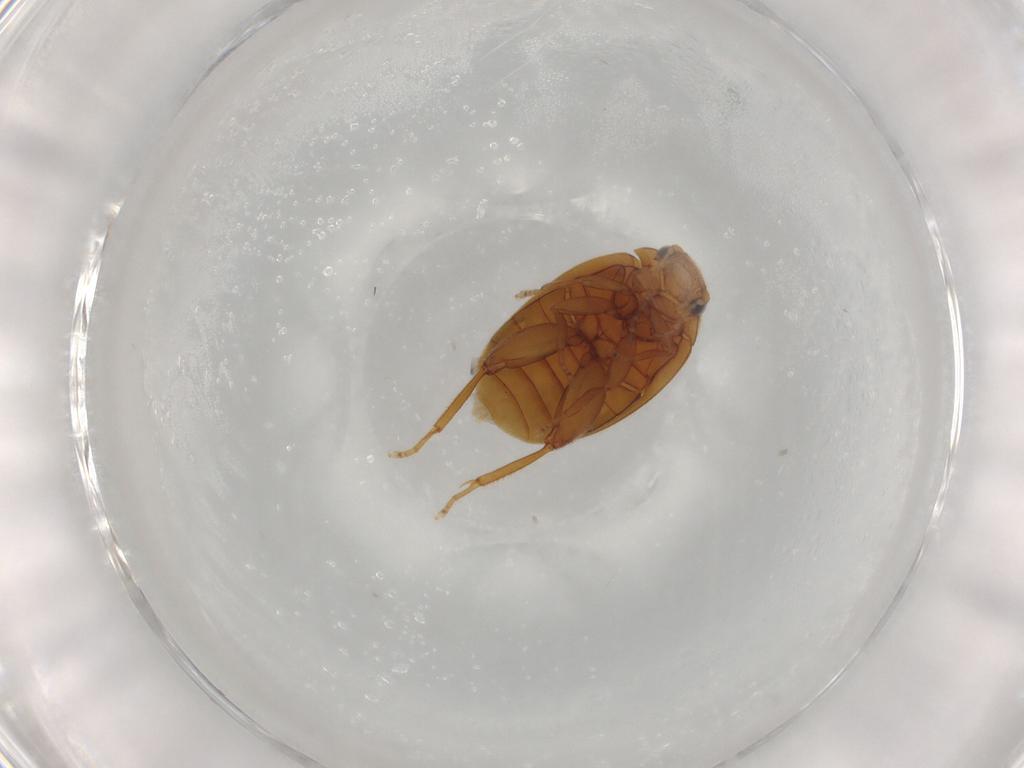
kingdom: Animalia
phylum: Arthropoda
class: Insecta
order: Coleoptera
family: Scirtidae
